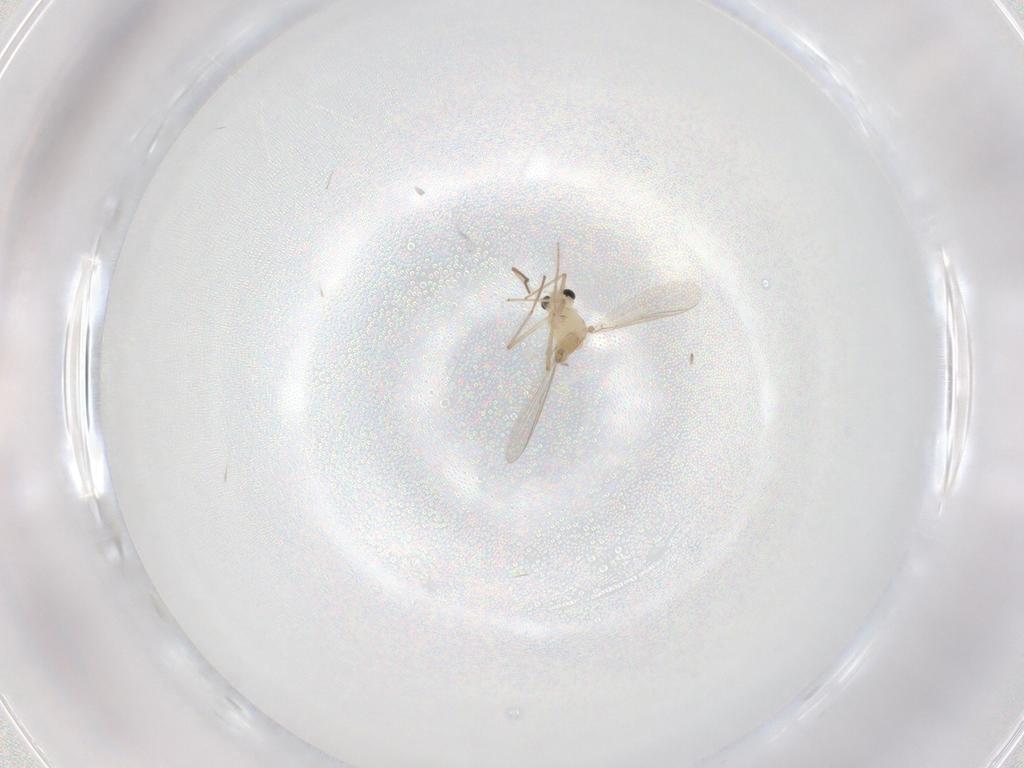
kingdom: Animalia
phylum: Arthropoda
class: Insecta
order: Diptera
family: Chironomidae
